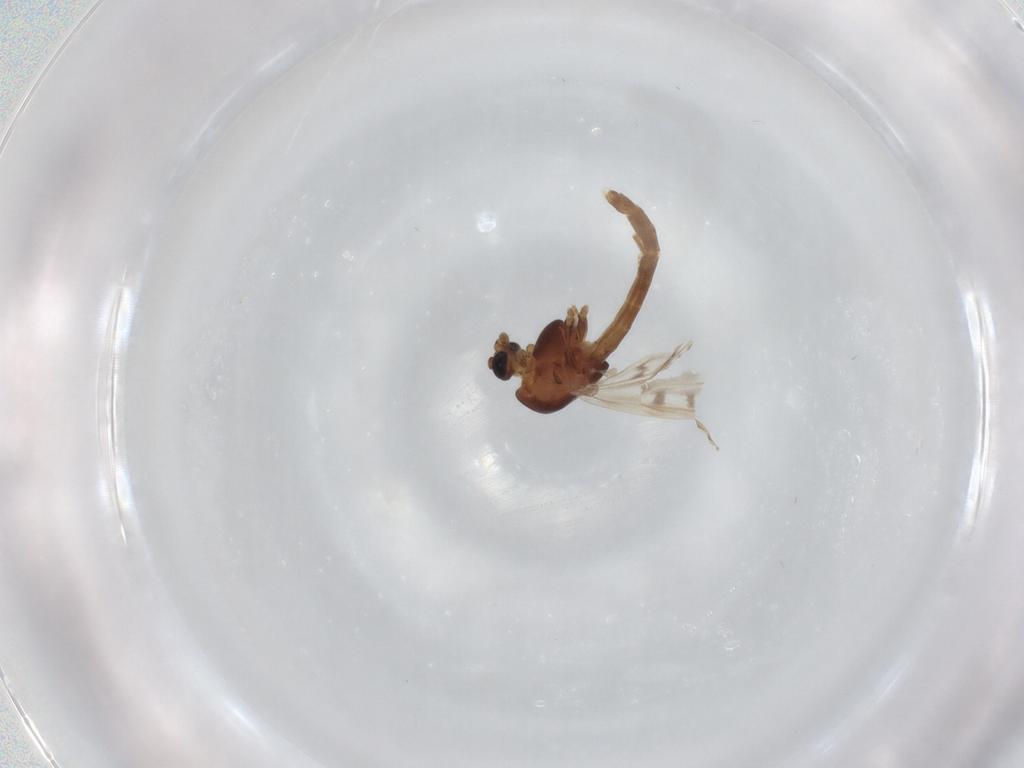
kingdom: Animalia
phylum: Arthropoda
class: Insecta
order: Diptera
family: Chironomidae
